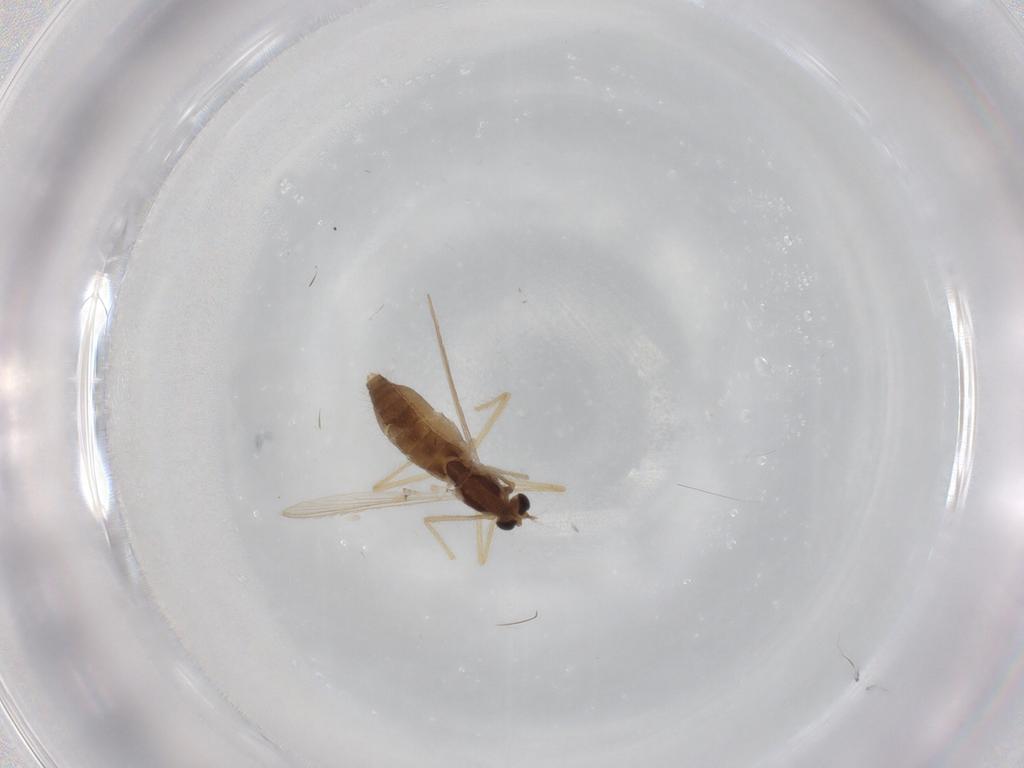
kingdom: Animalia
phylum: Arthropoda
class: Insecta
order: Diptera
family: Chironomidae
